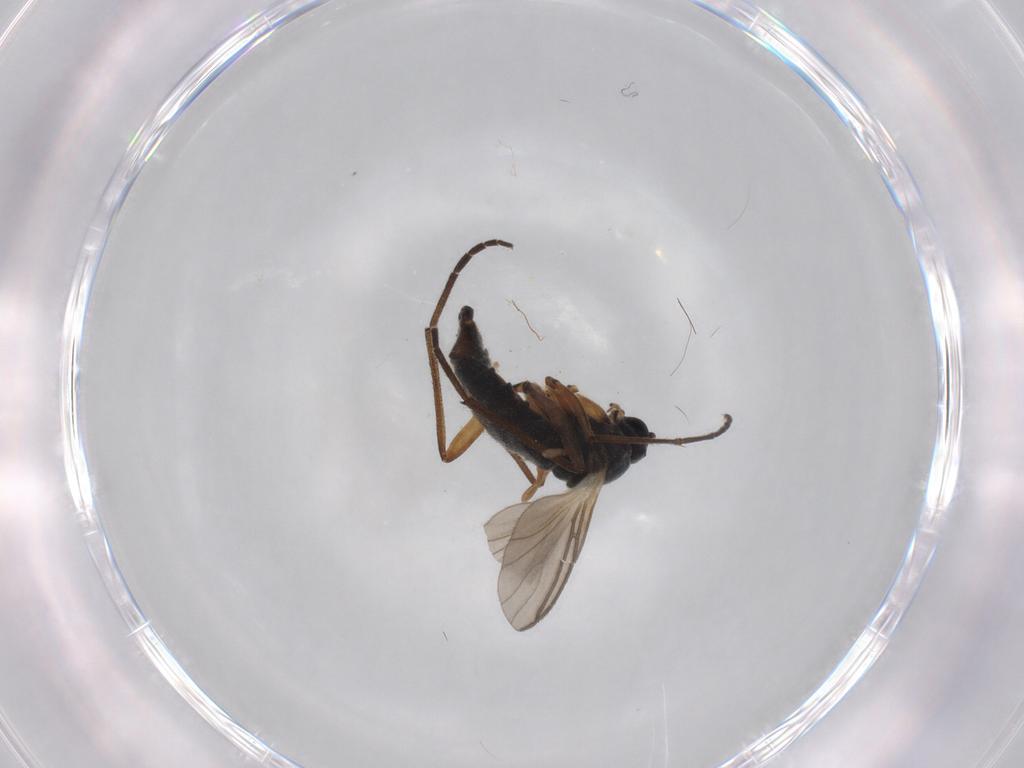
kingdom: Animalia
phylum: Arthropoda
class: Insecta
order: Diptera
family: Sciaridae
